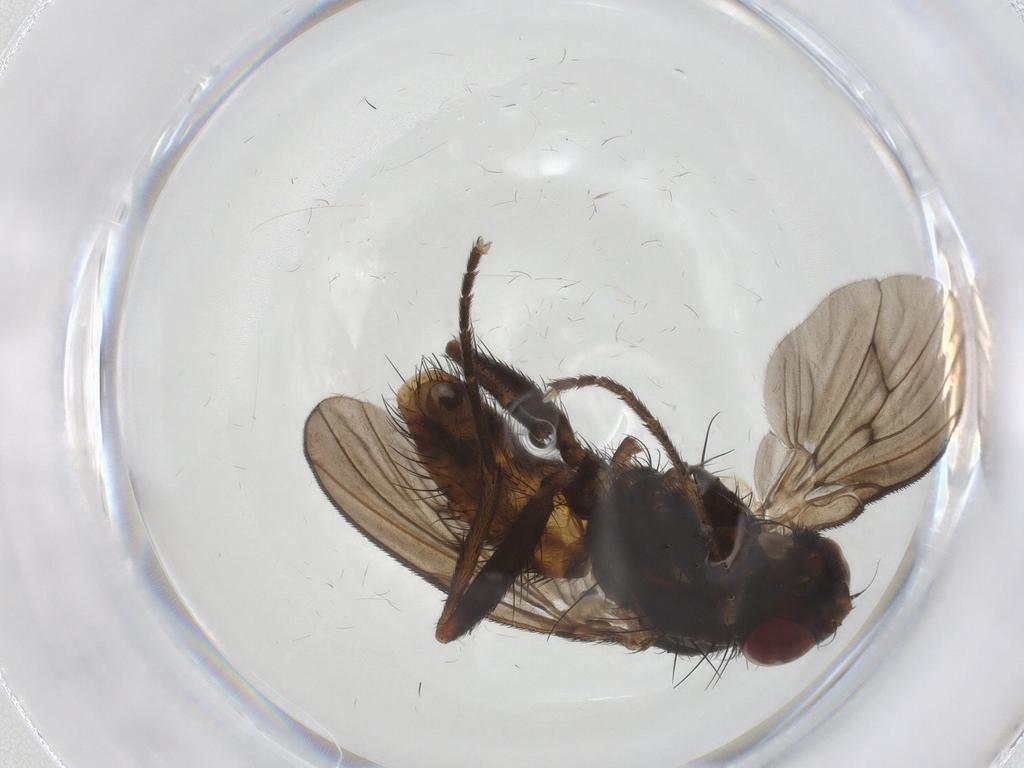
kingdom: Animalia
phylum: Arthropoda
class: Insecta
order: Diptera
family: Muscidae
